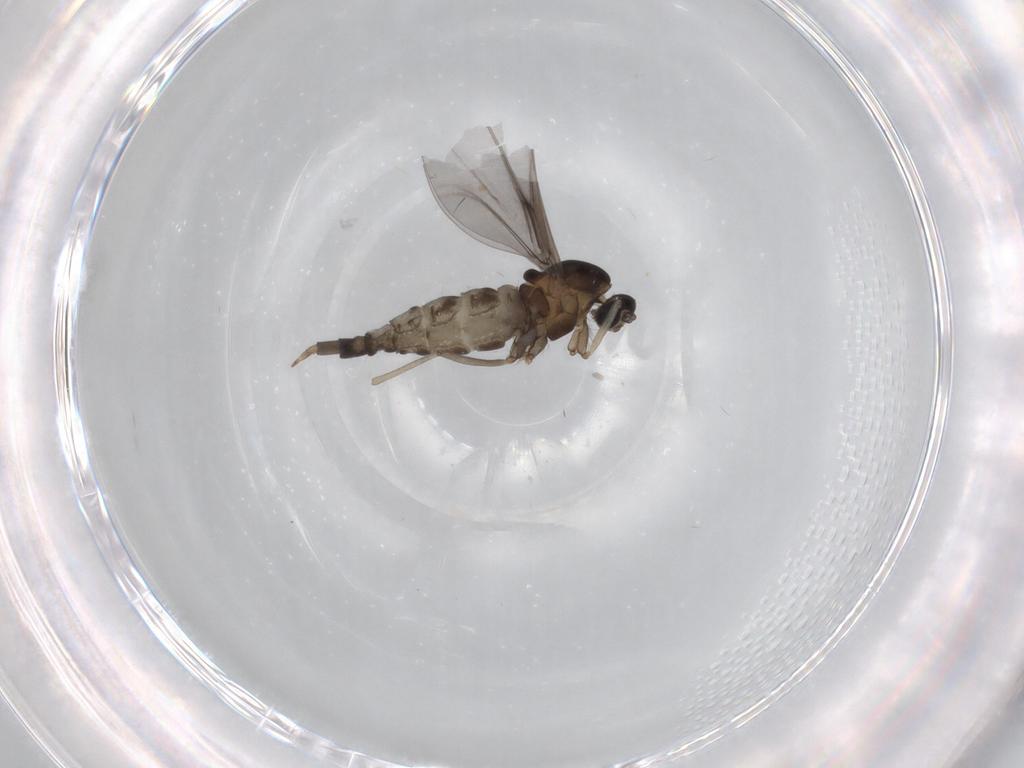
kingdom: Animalia
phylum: Arthropoda
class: Insecta
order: Diptera
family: Cecidomyiidae
